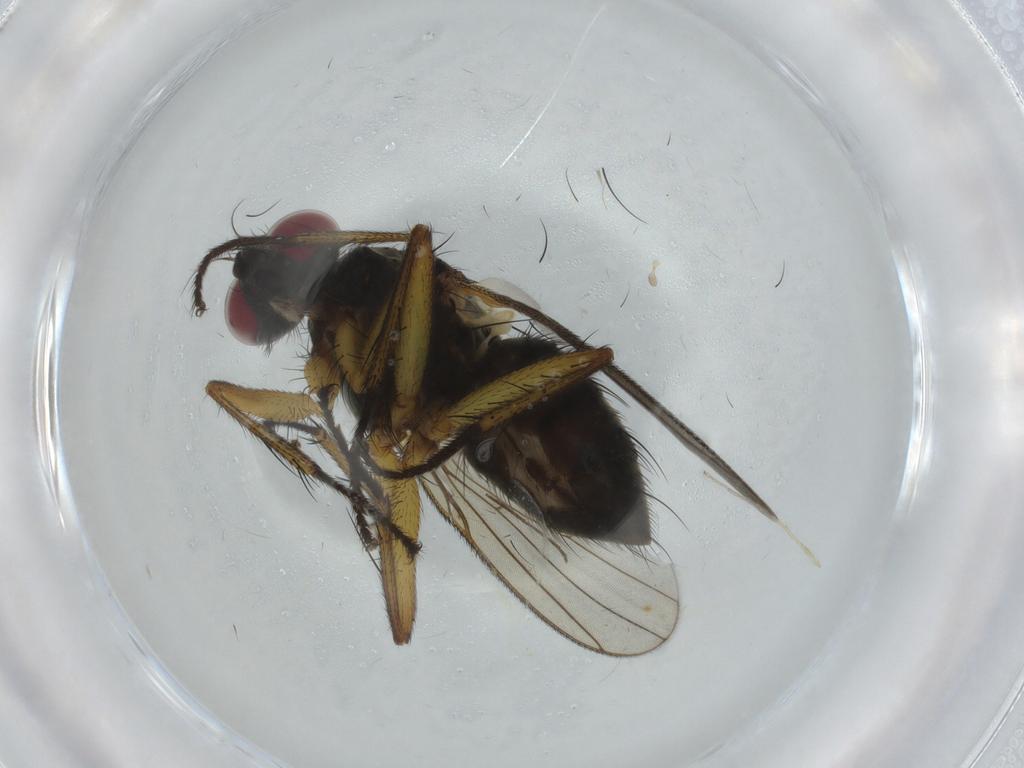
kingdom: Animalia
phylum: Arthropoda
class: Insecta
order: Diptera
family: Muscidae
